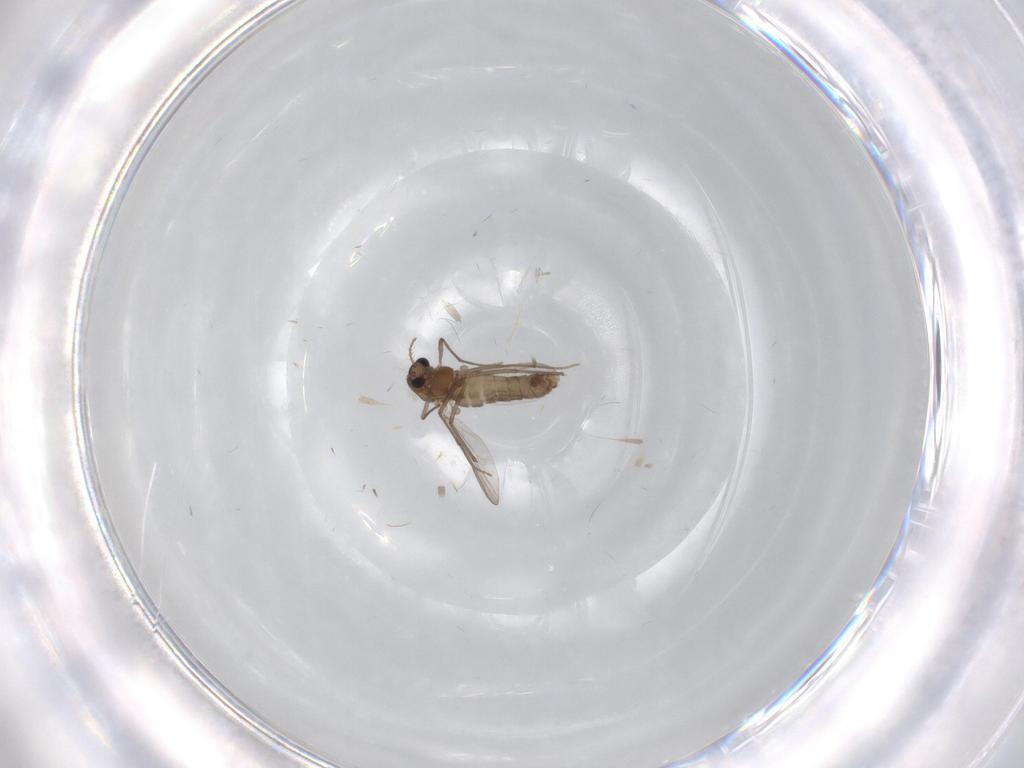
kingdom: Animalia
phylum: Arthropoda
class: Insecta
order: Diptera
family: Chironomidae
